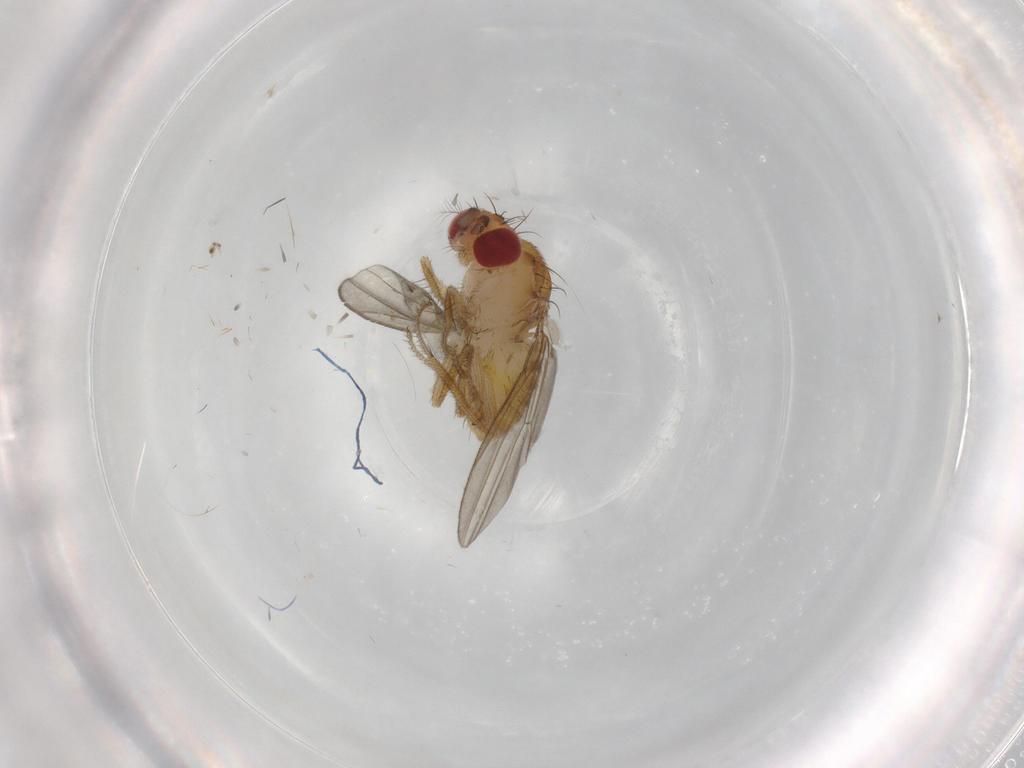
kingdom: Animalia
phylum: Arthropoda
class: Insecta
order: Diptera
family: Drosophilidae
